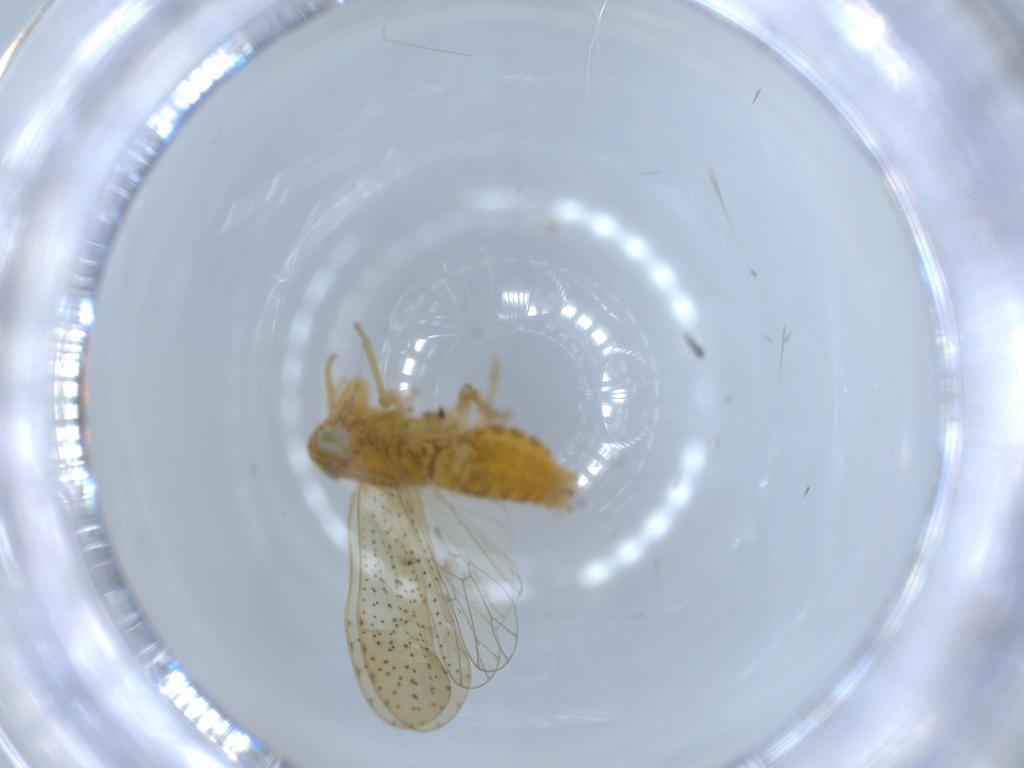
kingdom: Animalia
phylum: Arthropoda
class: Insecta
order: Hemiptera
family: Delphacidae
